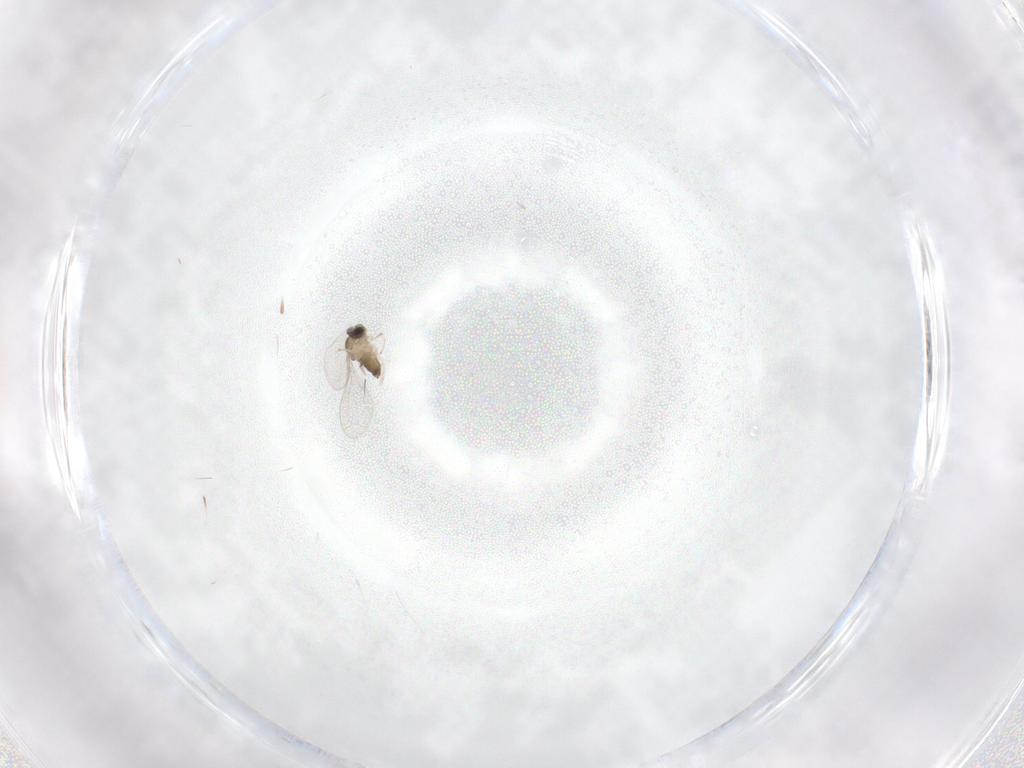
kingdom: Animalia
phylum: Arthropoda
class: Insecta
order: Diptera
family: Cecidomyiidae
